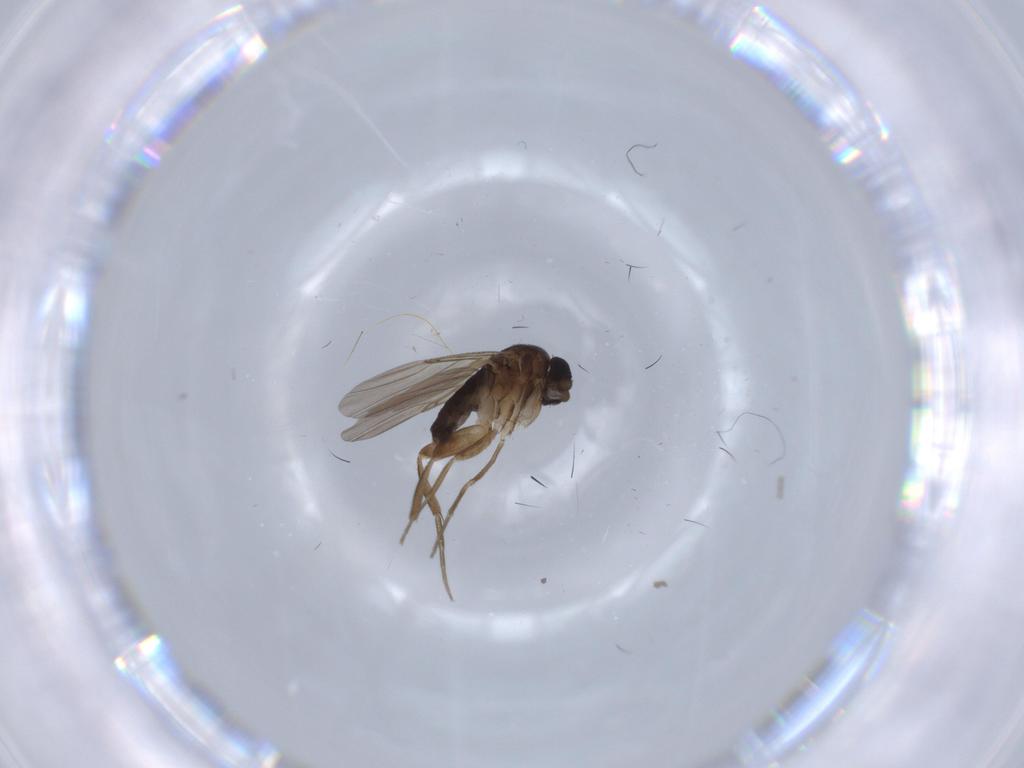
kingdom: Animalia
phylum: Arthropoda
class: Insecta
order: Diptera
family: Phoridae
